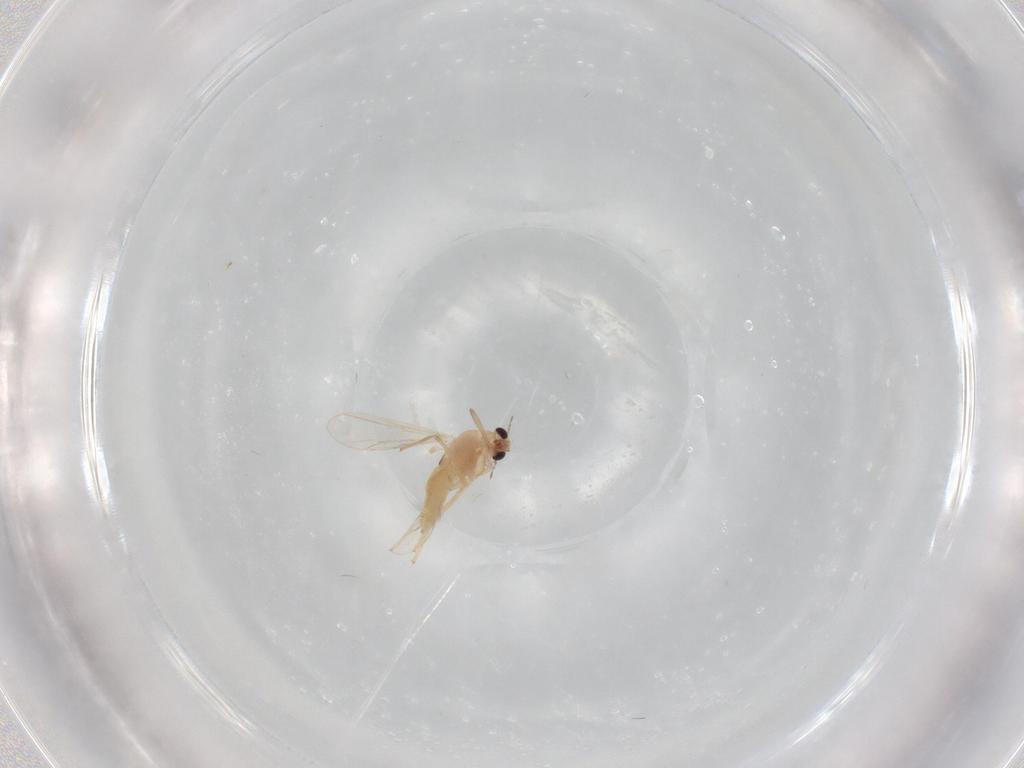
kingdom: Animalia
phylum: Arthropoda
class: Insecta
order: Diptera
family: Chironomidae
